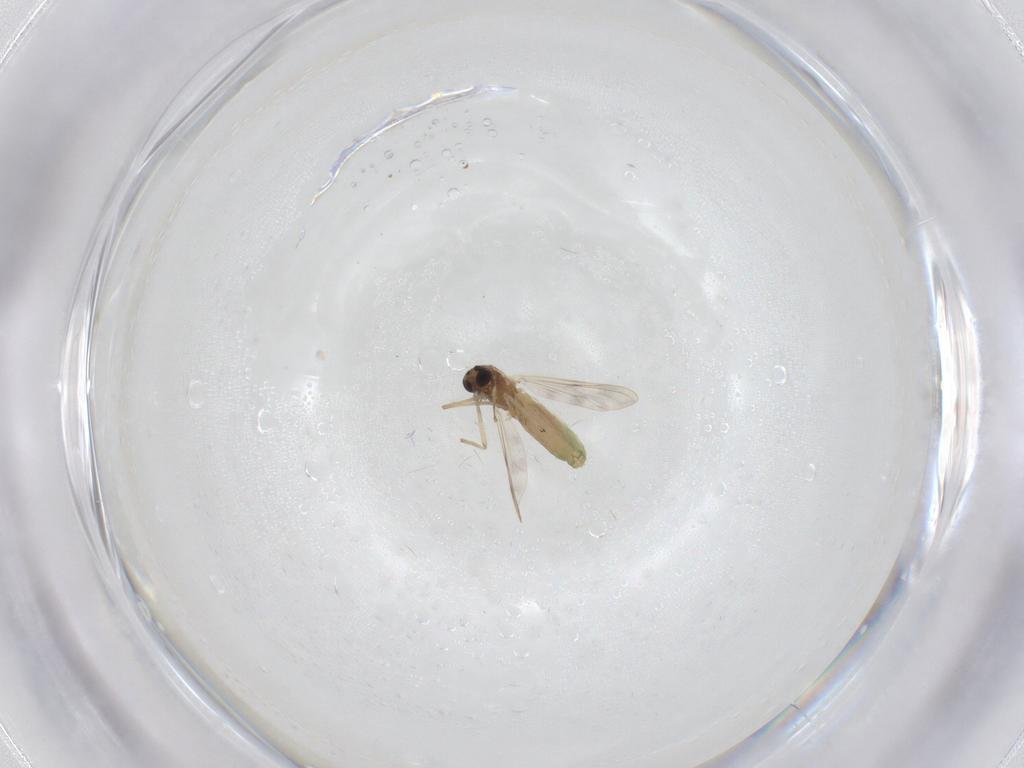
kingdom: Animalia
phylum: Arthropoda
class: Insecta
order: Diptera
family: Chironomidae
